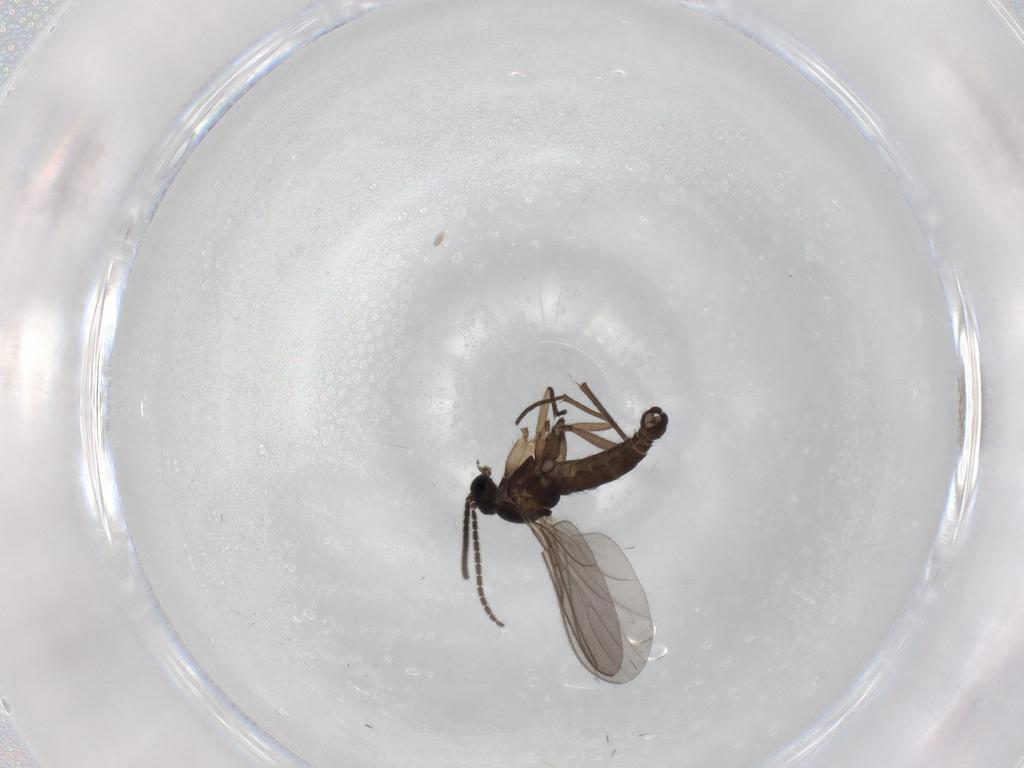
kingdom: Animalia
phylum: Arthropoda
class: Insecta
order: Diptera
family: Sciaridae
